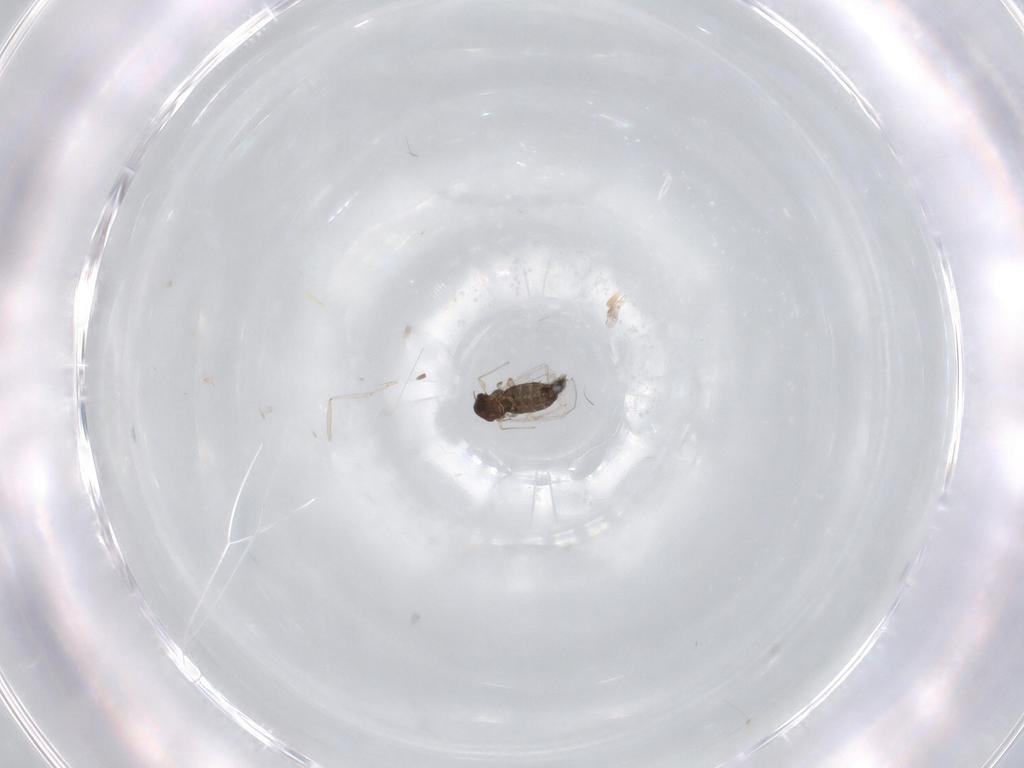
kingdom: Animalia
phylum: Arthropoda
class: Insecta
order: Diptera
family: Chironomidae
